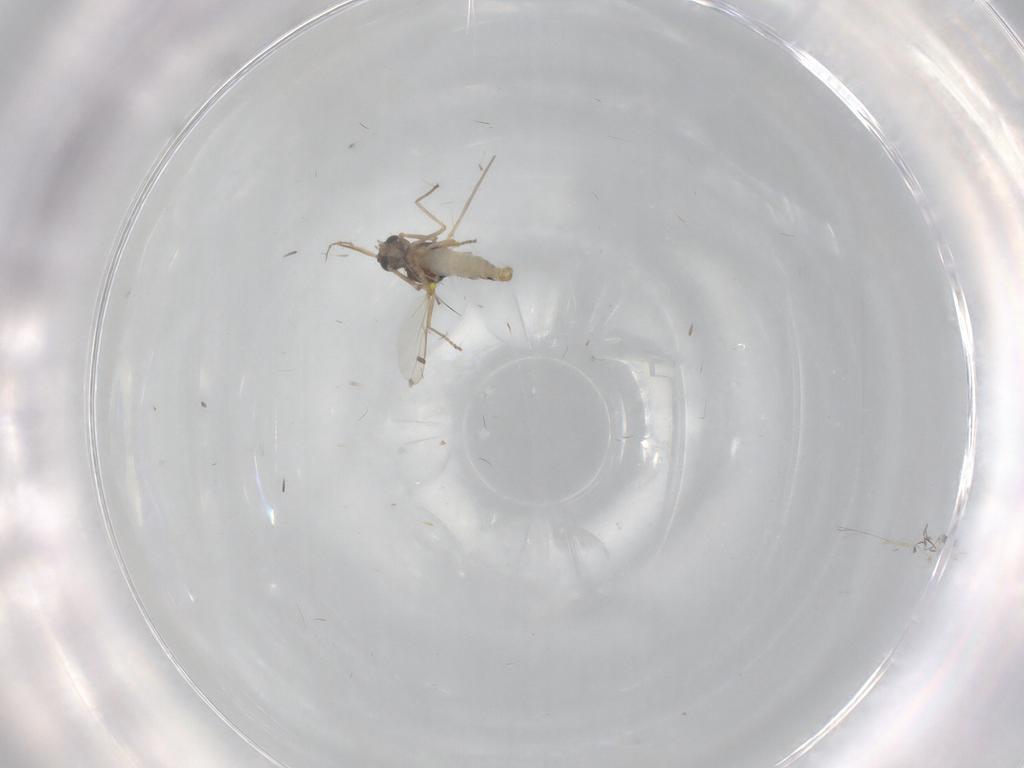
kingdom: Animalia
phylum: Arthropoda
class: Insecta
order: Diptera
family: Ceratopogonidae
